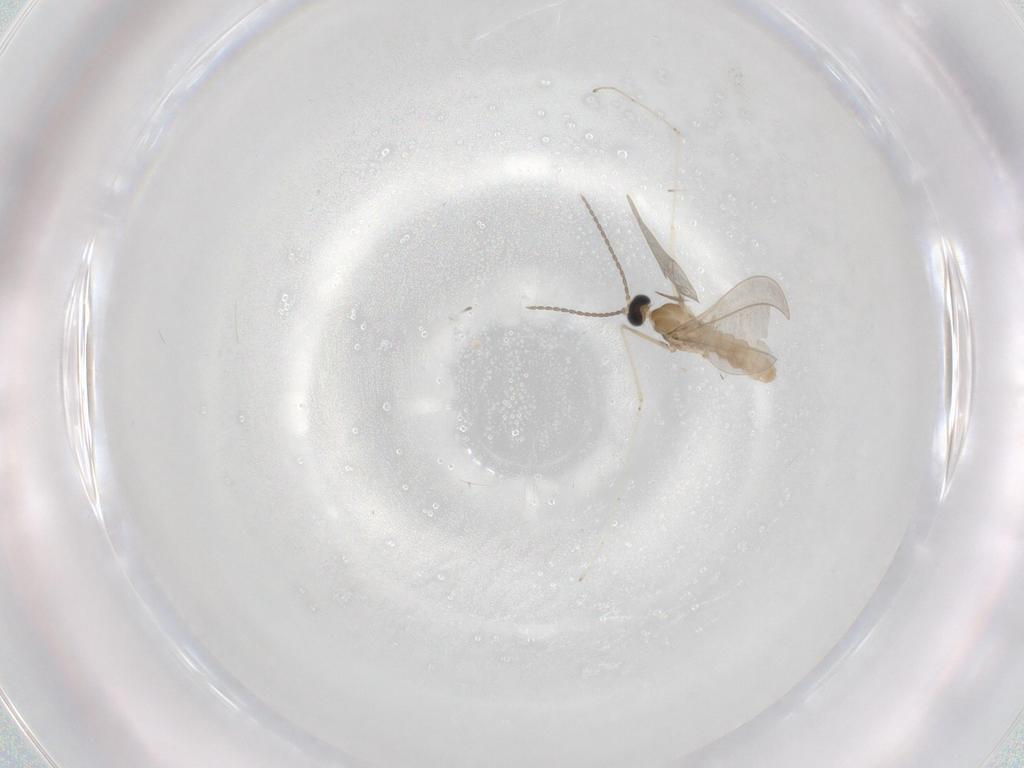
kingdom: Animalia
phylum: Arthropoda
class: Insecta
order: Diptera
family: Cecidomyiidae
